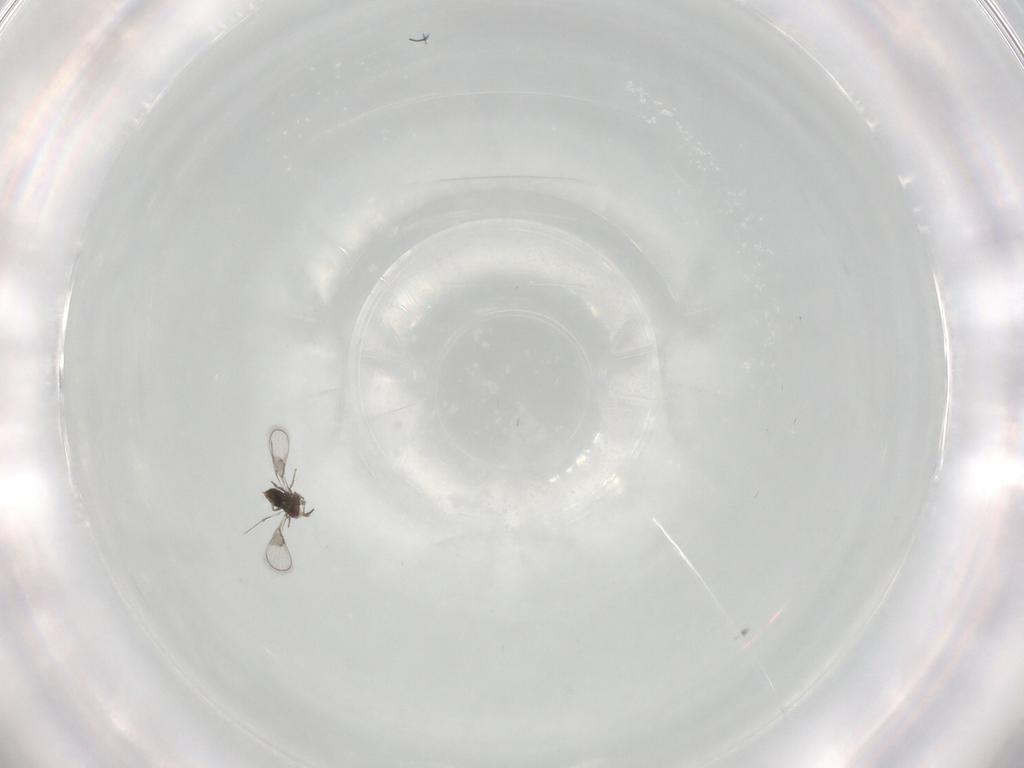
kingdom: Animalia
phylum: Arthropoda
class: Insecta
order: Hymenoptera
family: Trichogrammatidae
